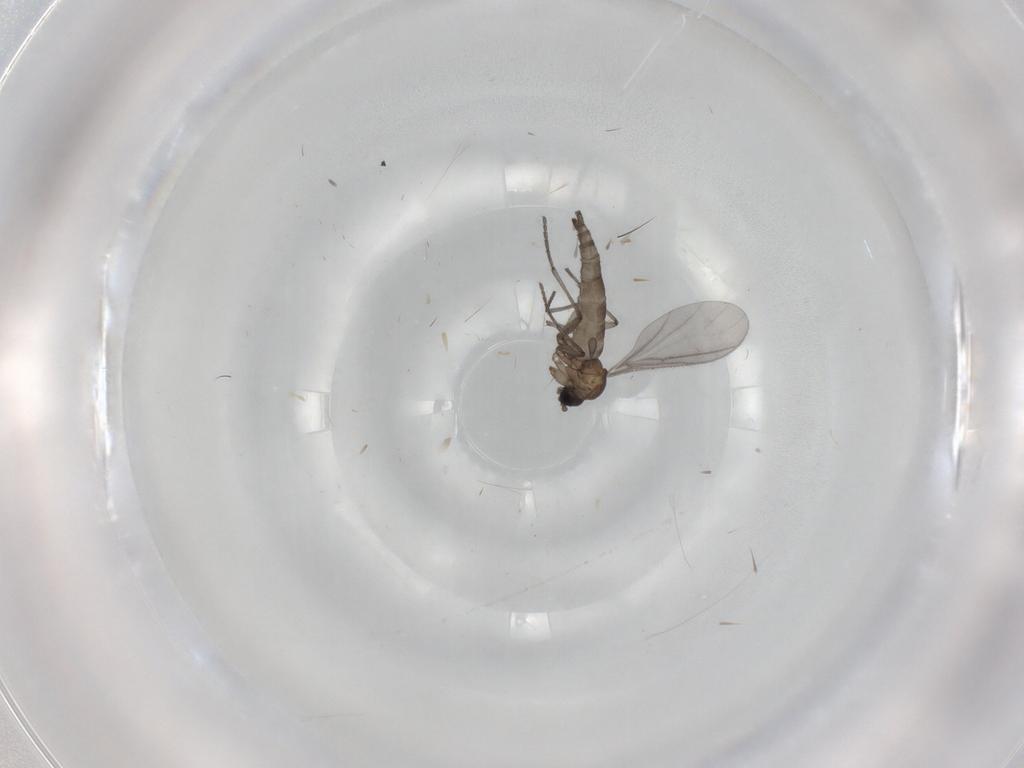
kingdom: Animalia
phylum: Arthropoda
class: Insecta
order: Diptera
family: Sciaridae
